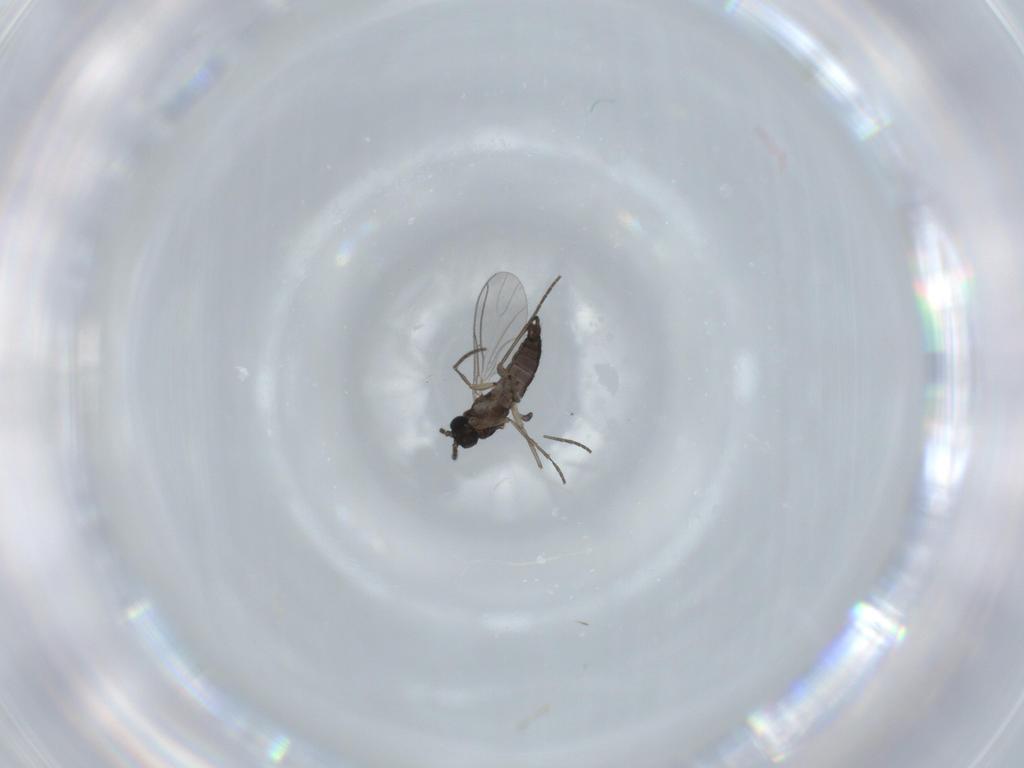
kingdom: Animalia
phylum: Arthropoda
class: Insecta
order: Diptera
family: Sciaridae
